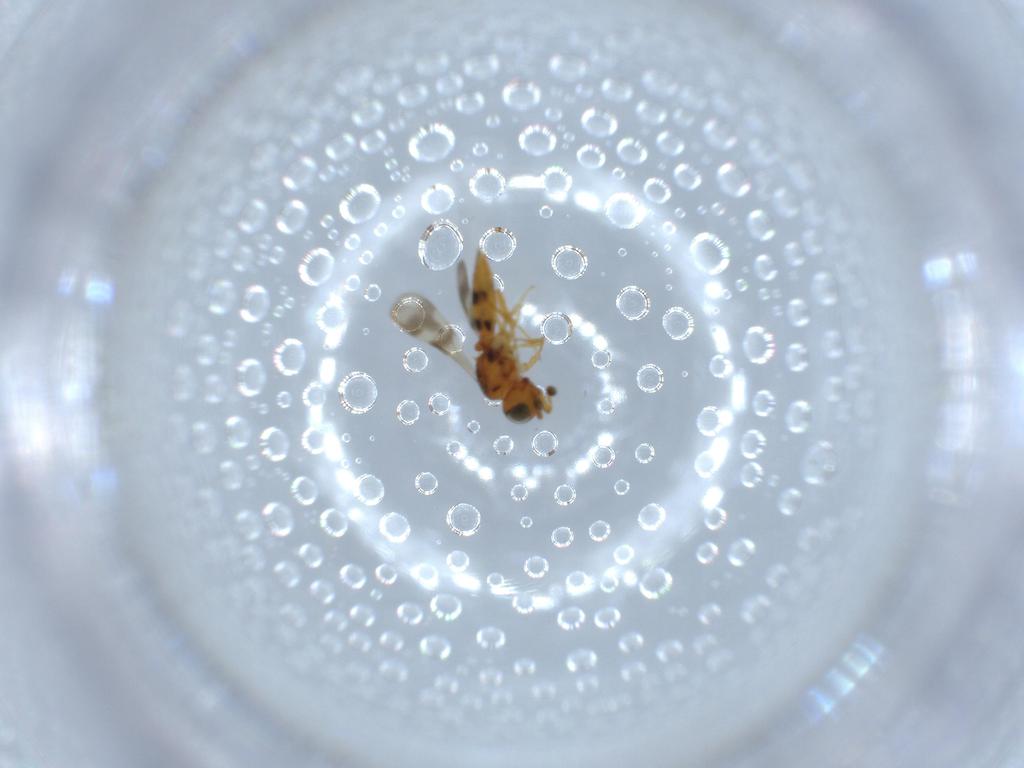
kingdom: Animalia
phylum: Arthropoda
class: Insecta
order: Hymenoptera
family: Scelionidae
